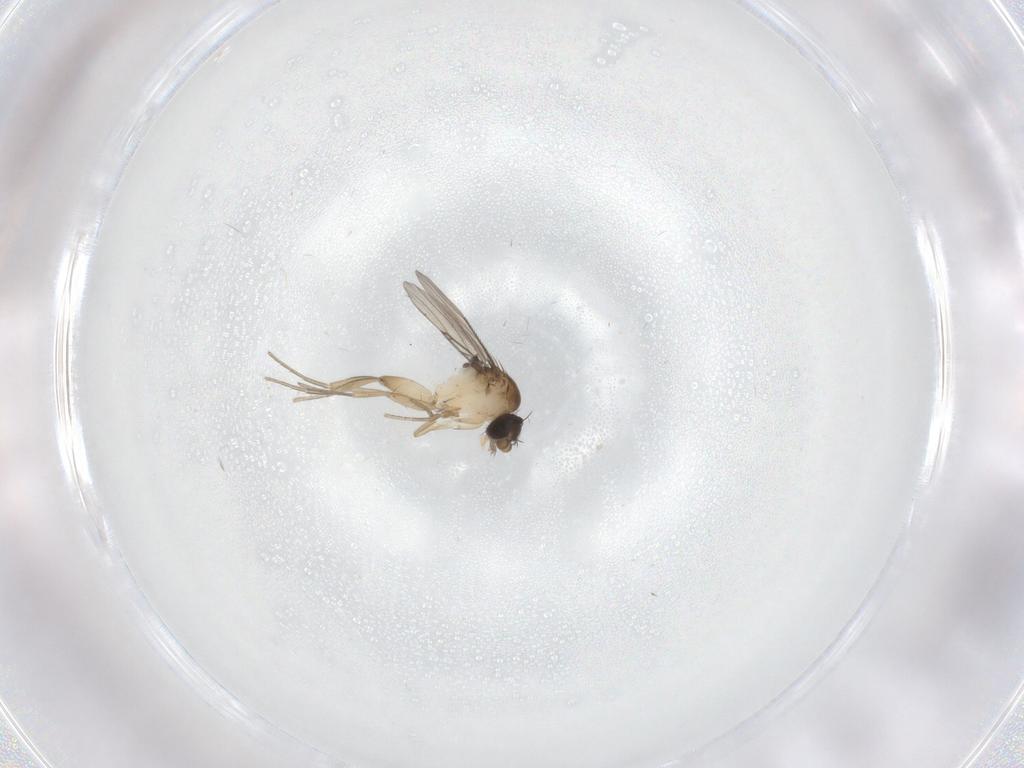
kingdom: Animalia
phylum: Arthropoda
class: Insecta
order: Diptera
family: Phoridae
